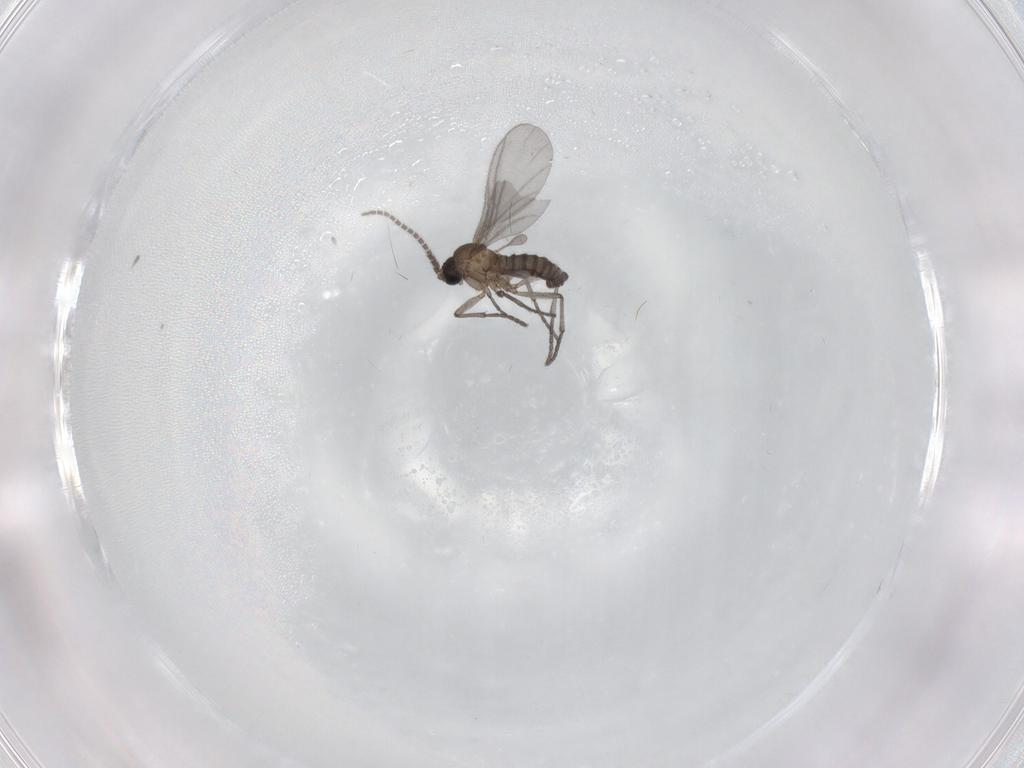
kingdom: Animalia
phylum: Arthropoda
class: Insecta
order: Diptera
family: Sciaridae
